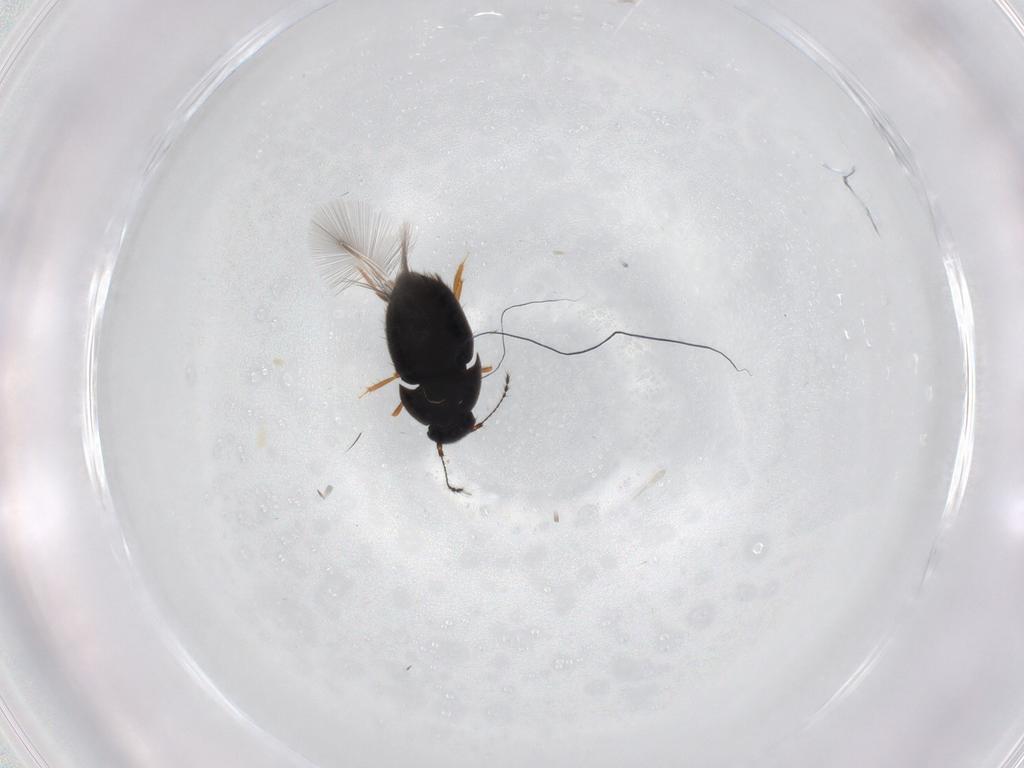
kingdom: Animalia
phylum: Arthropoda
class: Insecta
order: Coleoptera
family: Ptiliidae
